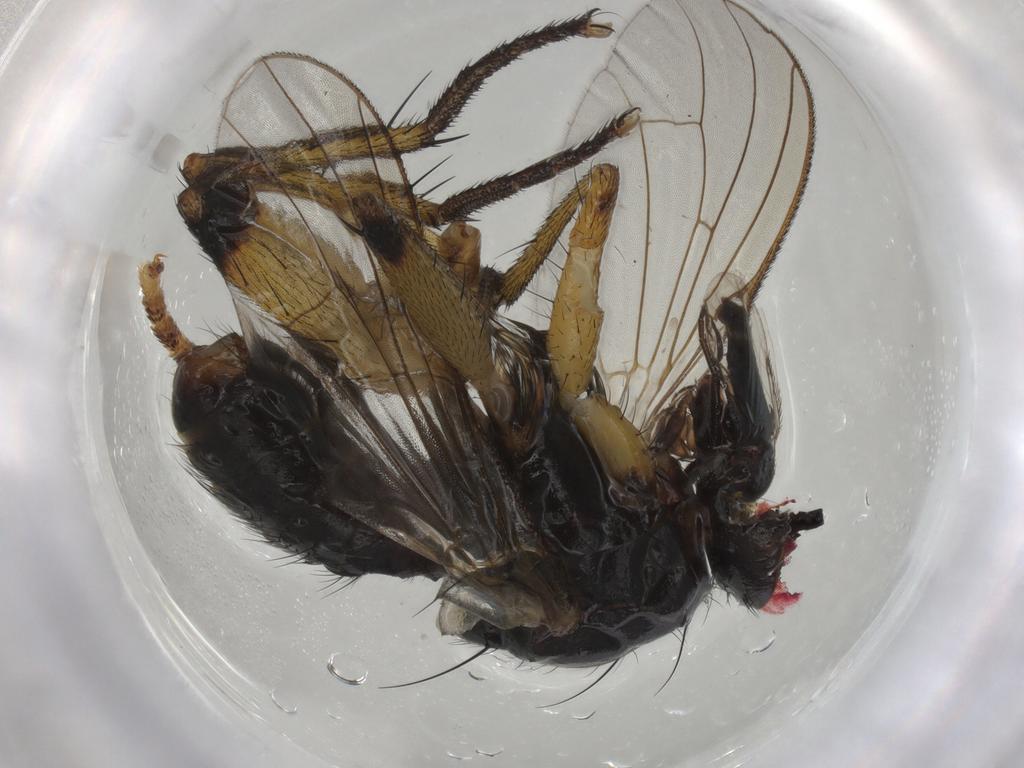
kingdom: Animalia
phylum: Arthropoda
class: Insecta
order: Diptera
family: Muscidae
